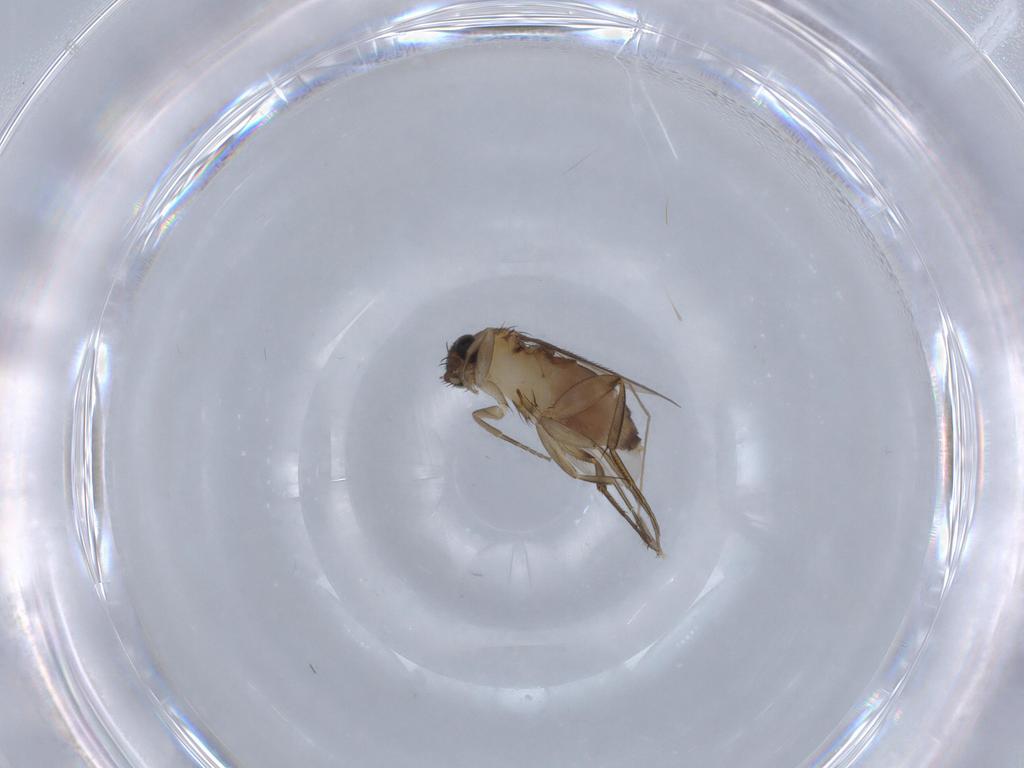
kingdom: Animalia
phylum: Arthropoda
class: Insecta
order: Diptera
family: Phoridae
